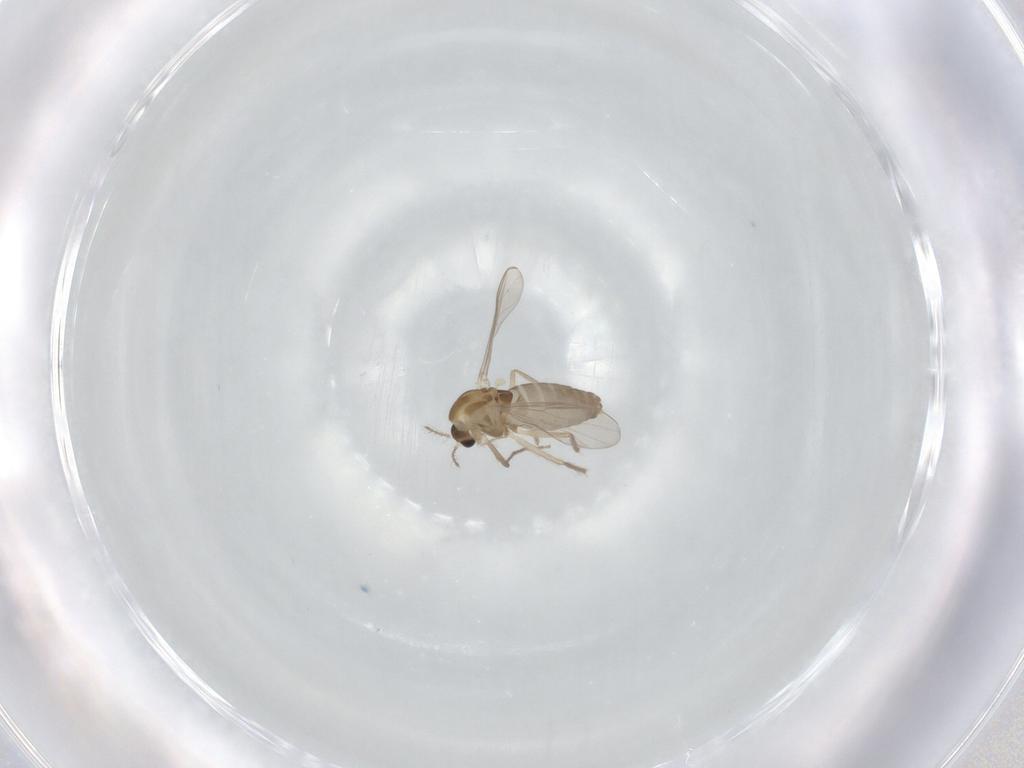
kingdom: Animalia
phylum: Arthropoda
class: Insecta
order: Diptera
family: Chironomidae
